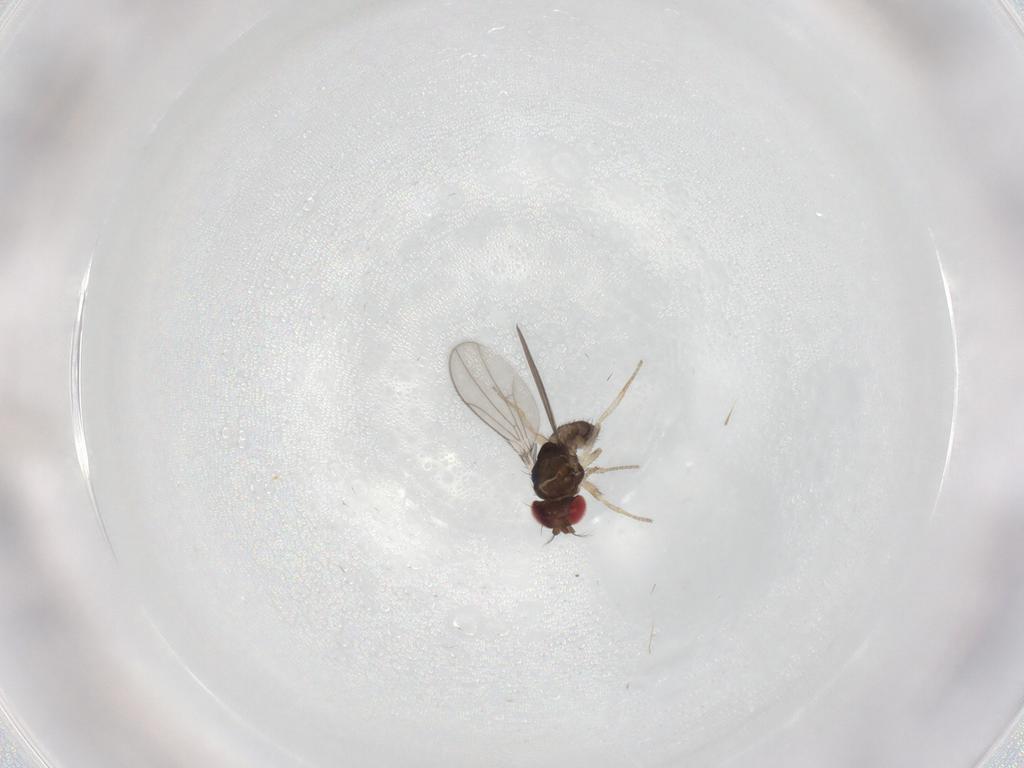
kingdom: Animalia
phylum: Arthropoda
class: Insecta
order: Diptera
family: Drosophilidae
